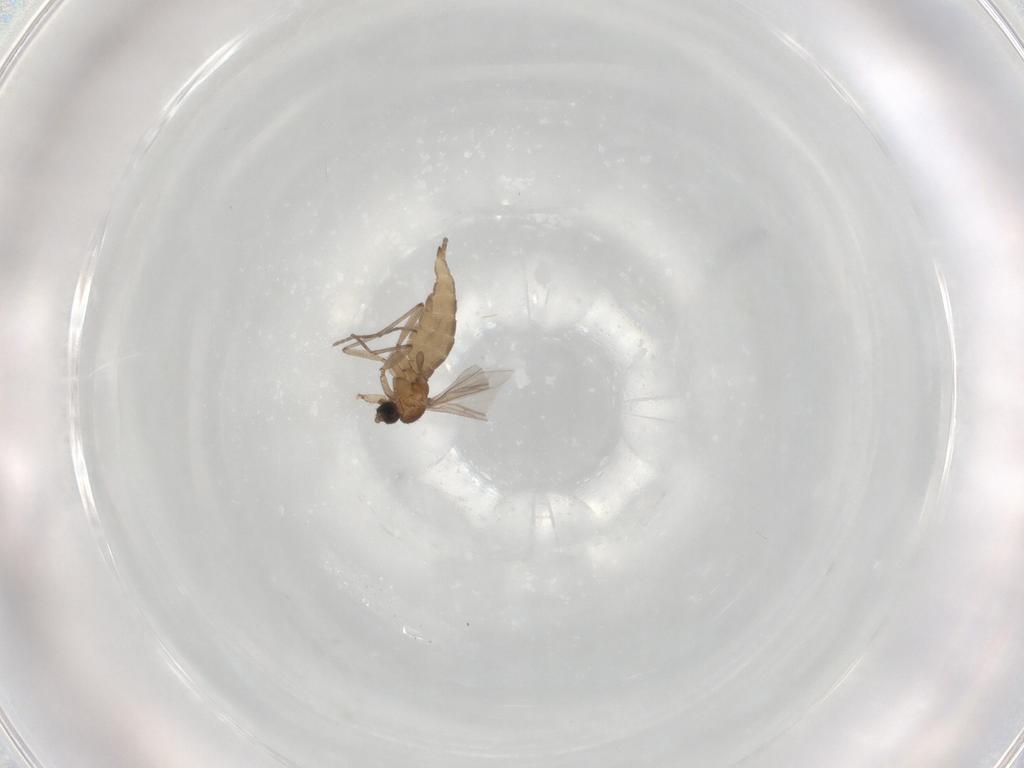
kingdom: Animalia
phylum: Arthropoda
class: Insecta
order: Diptera
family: Sciaridae
